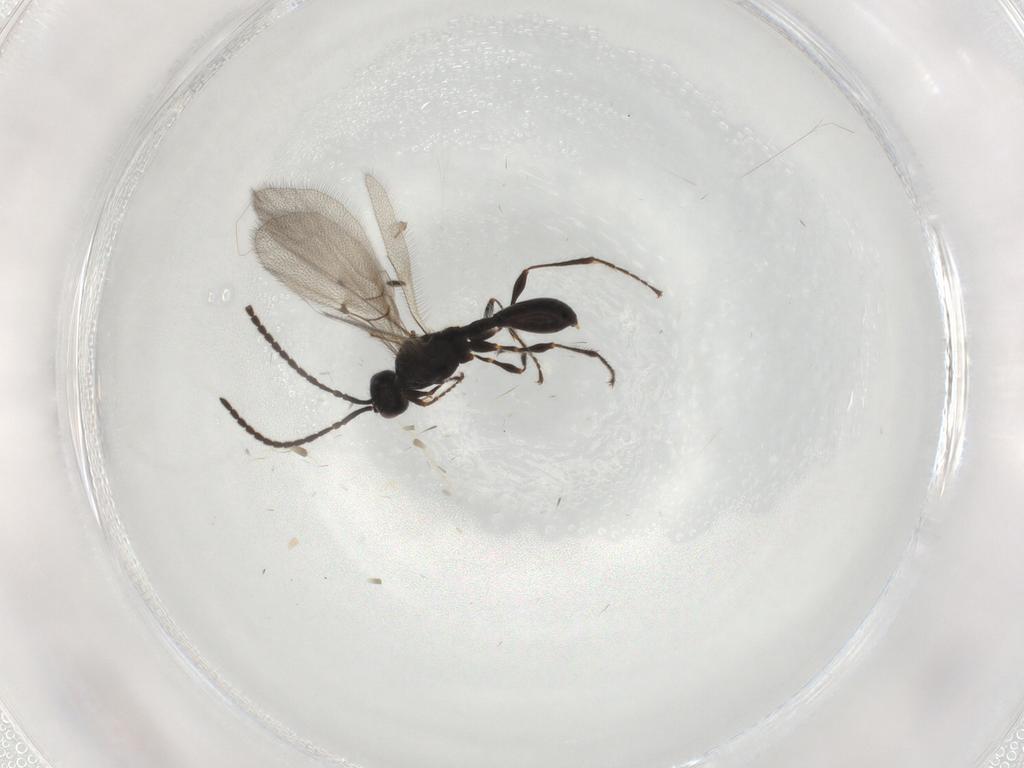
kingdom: Animalia
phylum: Arthropoda
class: Insecta
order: Hymenoptera
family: Diapriidae
